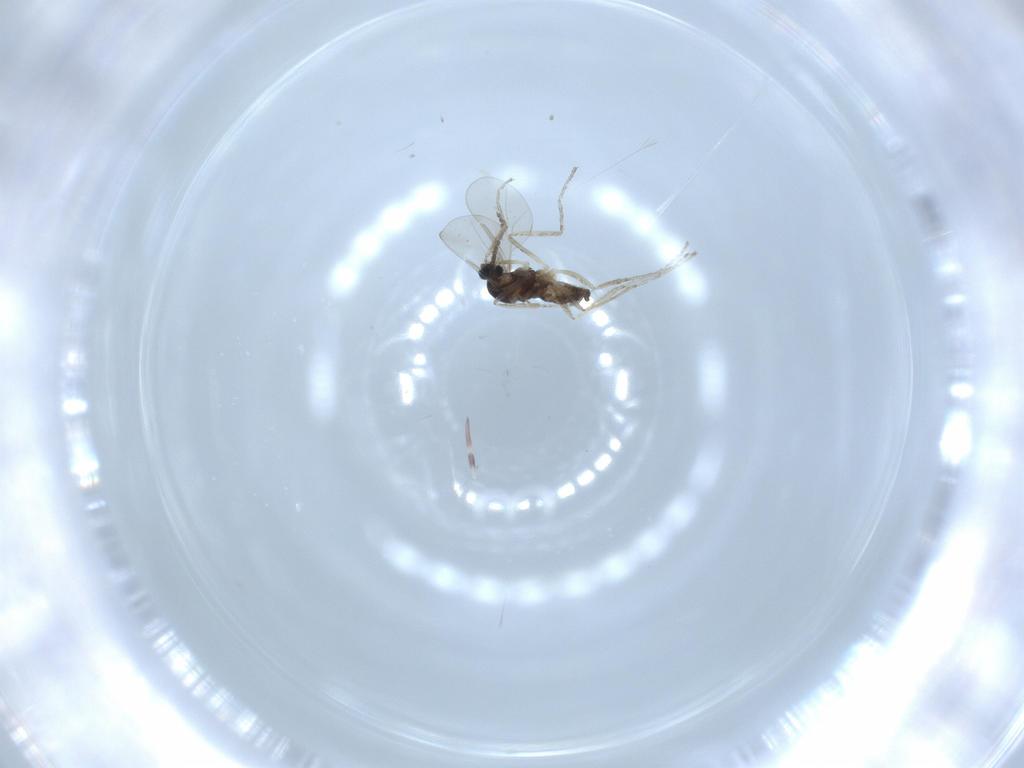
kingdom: Animalia
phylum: Arthropoda
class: Insecta
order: Diptera
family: Cecidomyiidae
